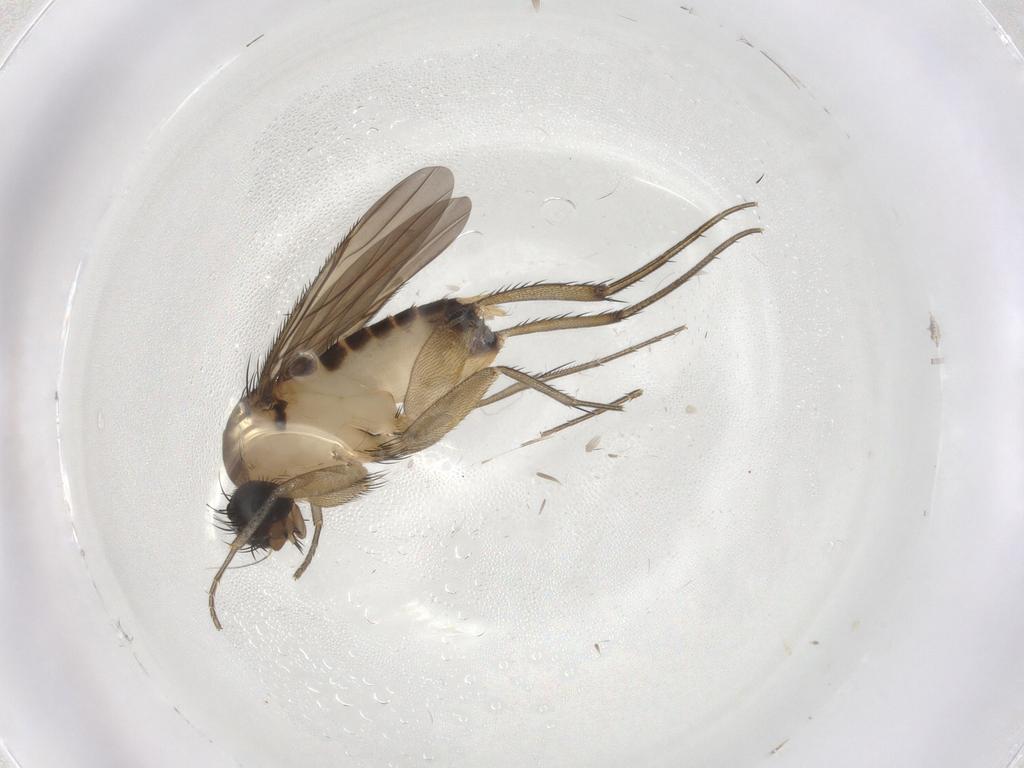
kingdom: Animalia
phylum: Arthropoda
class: Insecta
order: Diptera
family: Phoridae
